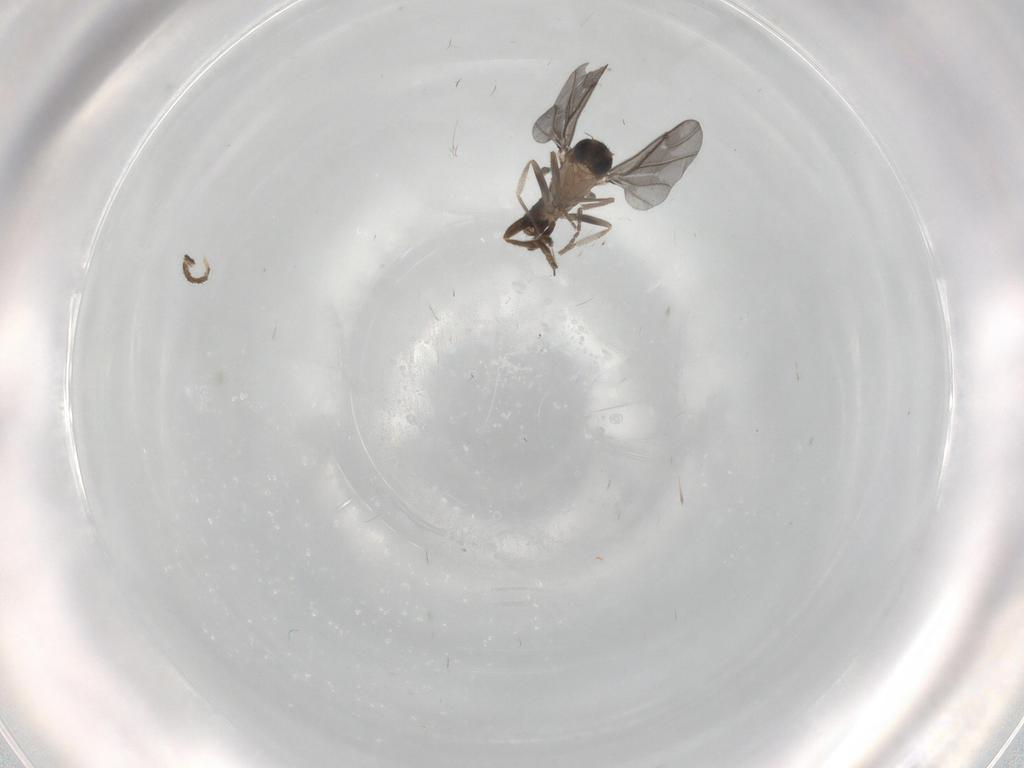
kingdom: Animalia
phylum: Arthropoda
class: Insecta
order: Diptera
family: Cecidomyiidae
